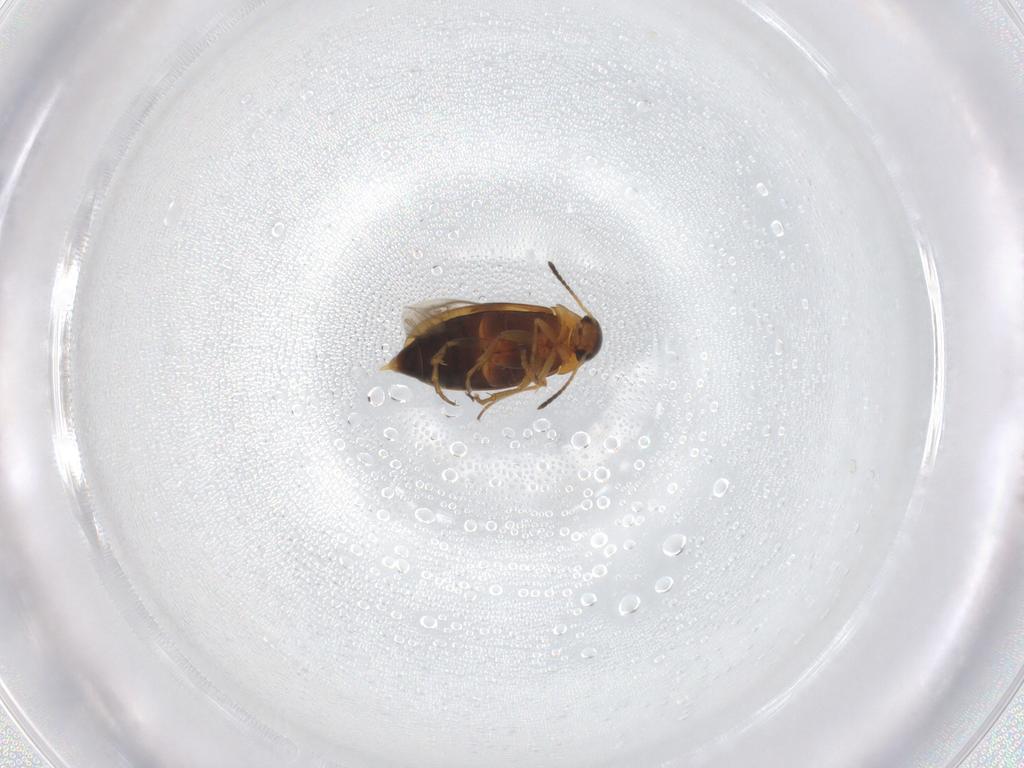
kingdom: Animalia
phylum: Arthropoda
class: Insecta
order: Coleoptera
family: Scraptiidae
